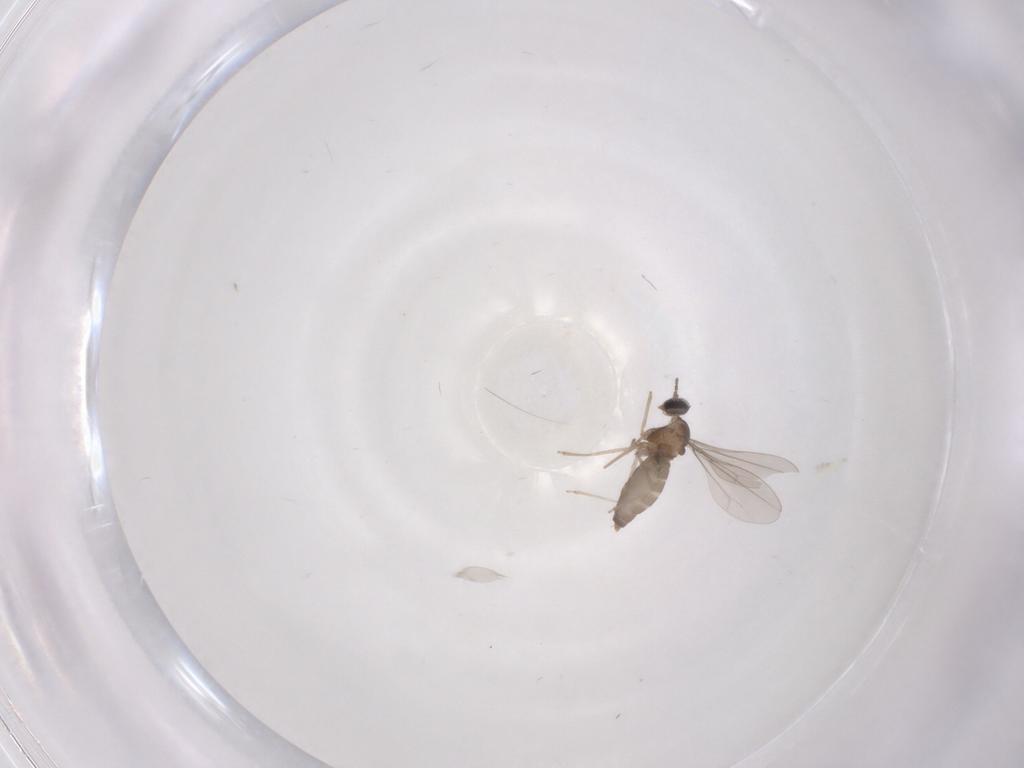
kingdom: Animalia
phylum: Arthropoda
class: Insecta
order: Diptera
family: Cecidomyiidae
